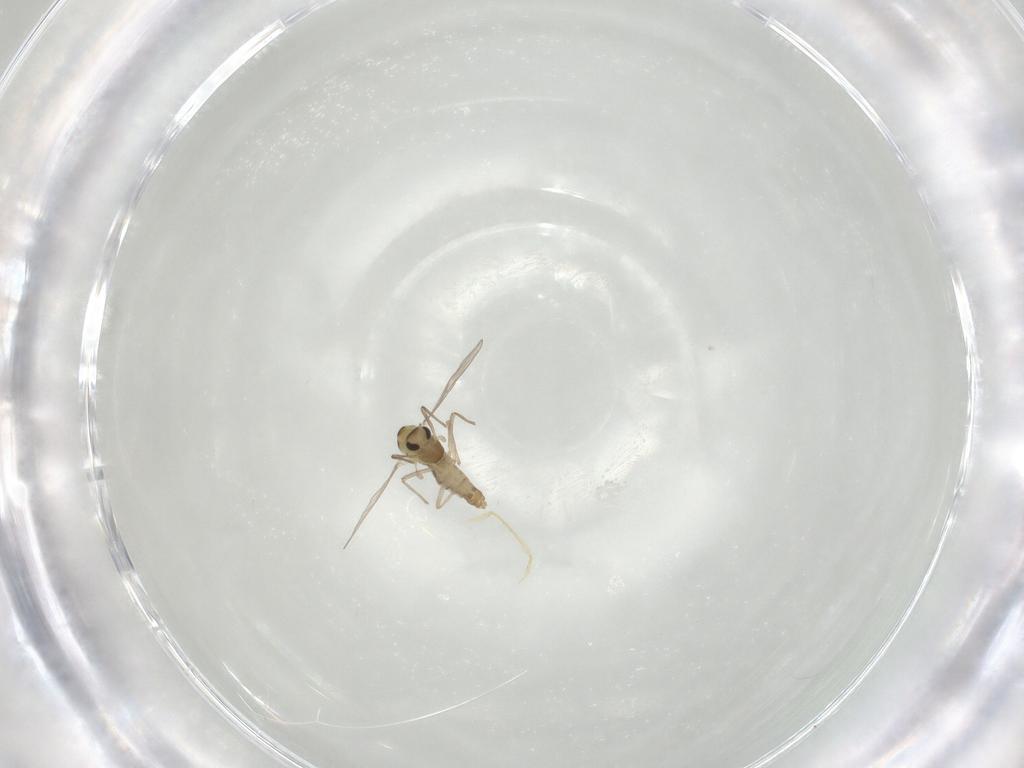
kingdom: Animalia
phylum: Arthropoda
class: Insecta
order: Diptera
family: Chironomidae
